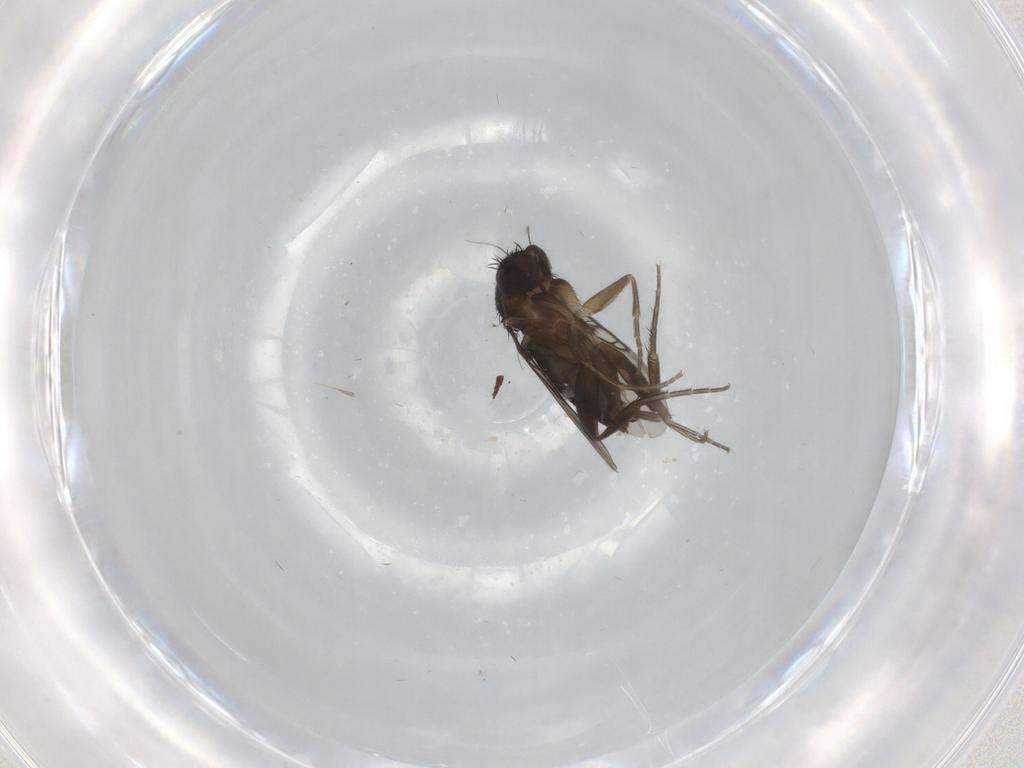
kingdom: Animalia
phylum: Arthropoda
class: Insecta
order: Diptera
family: Phoridae
